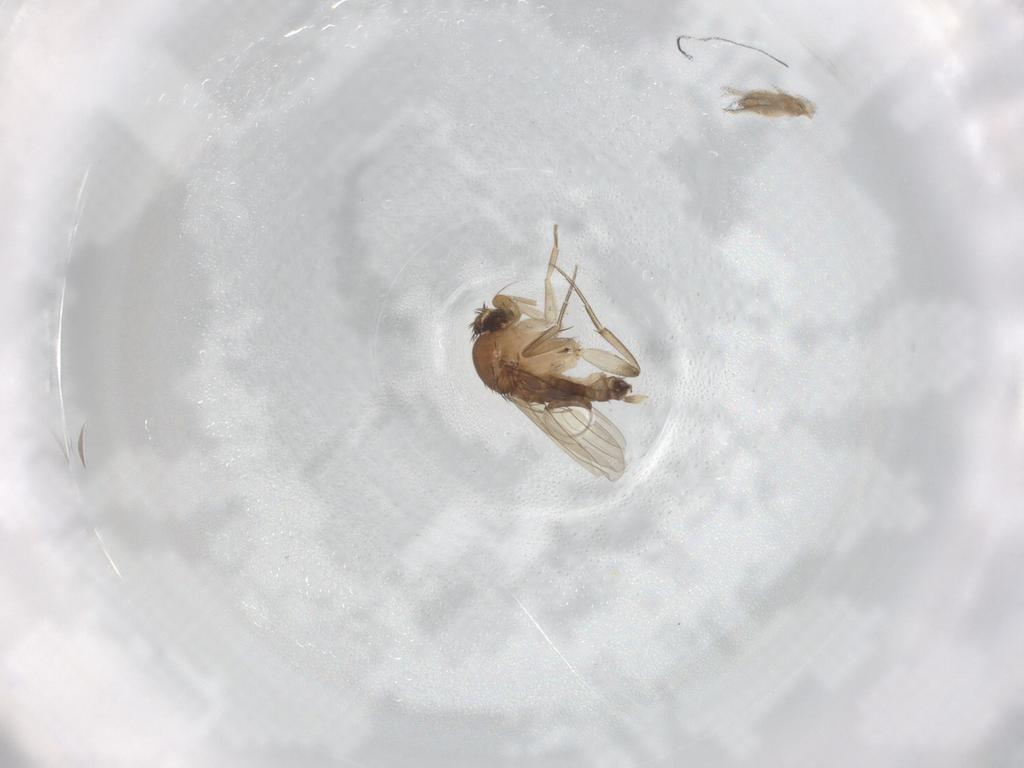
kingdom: Animalia
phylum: Arthropoda
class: Insecta
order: Diptera
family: Phoridae
